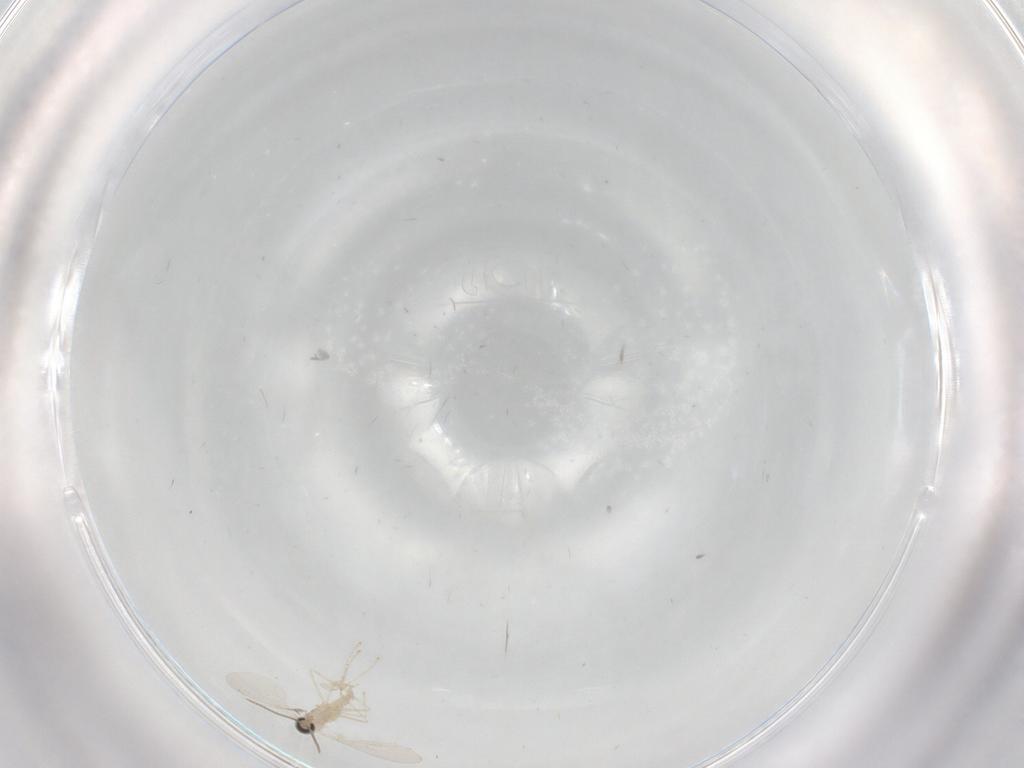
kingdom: Animalia
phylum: Arthropoda
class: Insecta
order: Diptera
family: Cecidomyiidae
